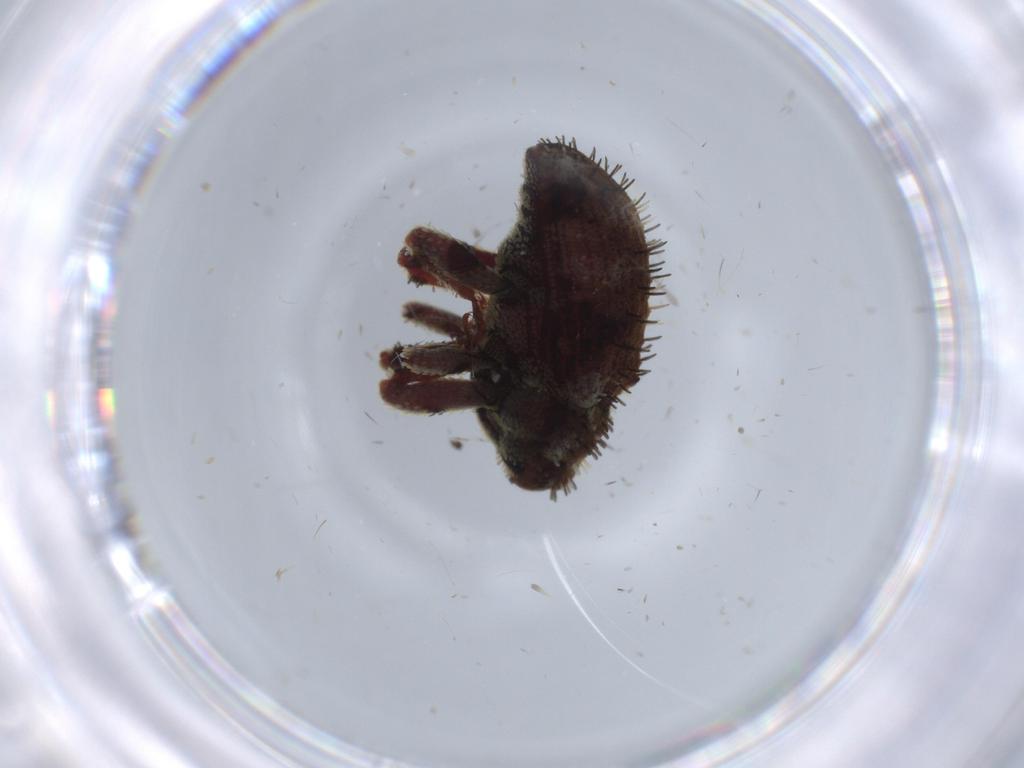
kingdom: Animalia
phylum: Arthropoda
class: Insecta
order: Coleoptera
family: Curculionidae
